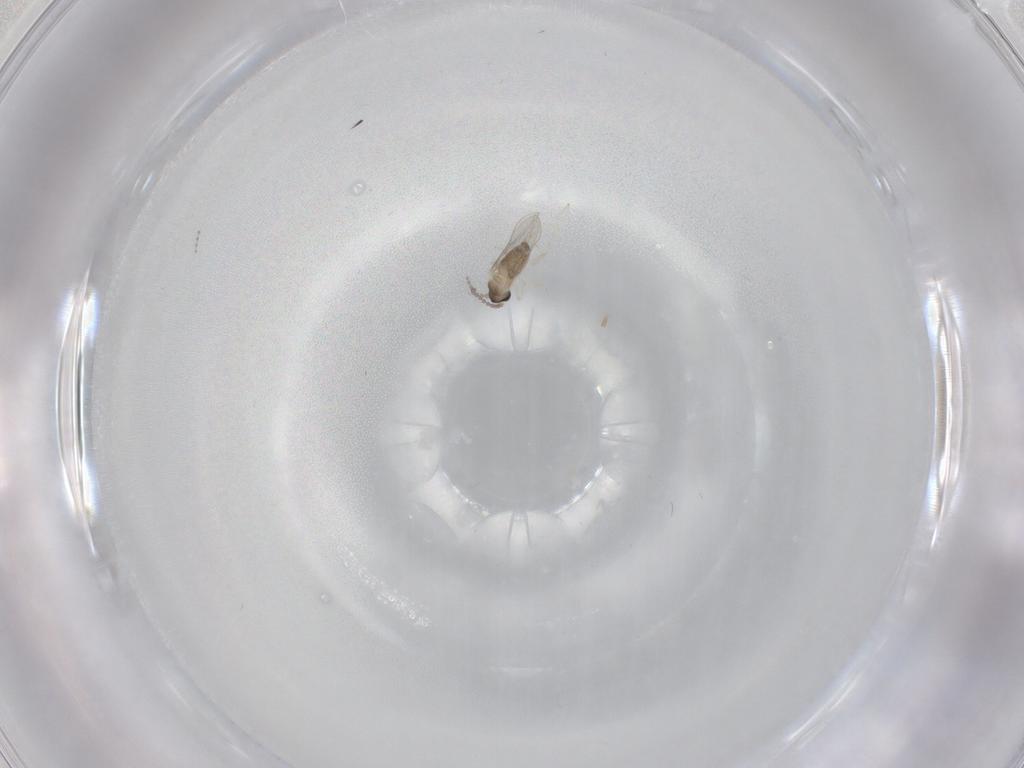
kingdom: Animalia
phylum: Arthropoda
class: Insecta
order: Diptera
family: Cecidomyiidae
